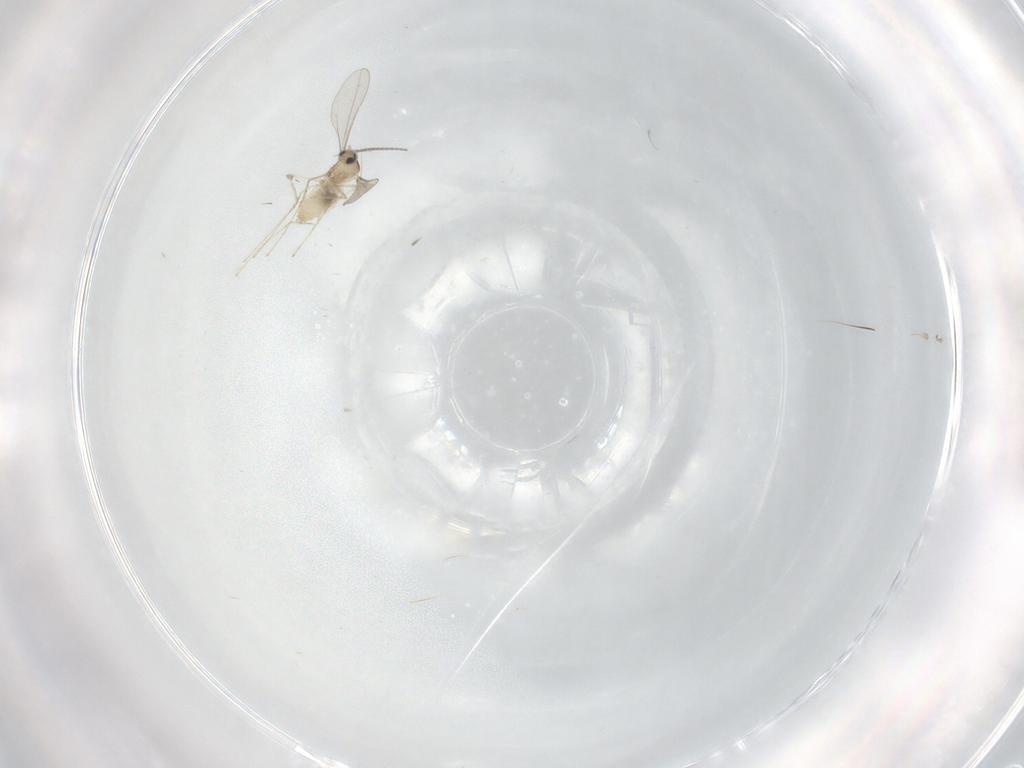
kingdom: Animalia
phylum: Arthropoda
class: Insecta
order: Diptera
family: Cecidomyiidae
